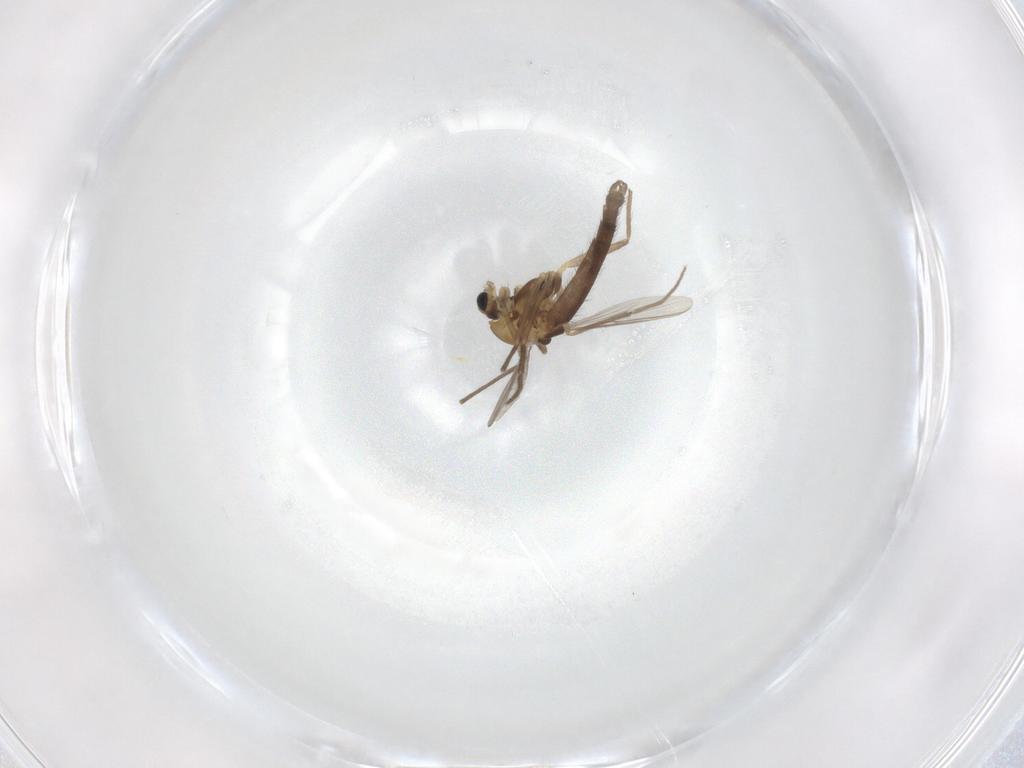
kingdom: Animalia
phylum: Arthropoda
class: Insecta
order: Diptera
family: Chironomidae
